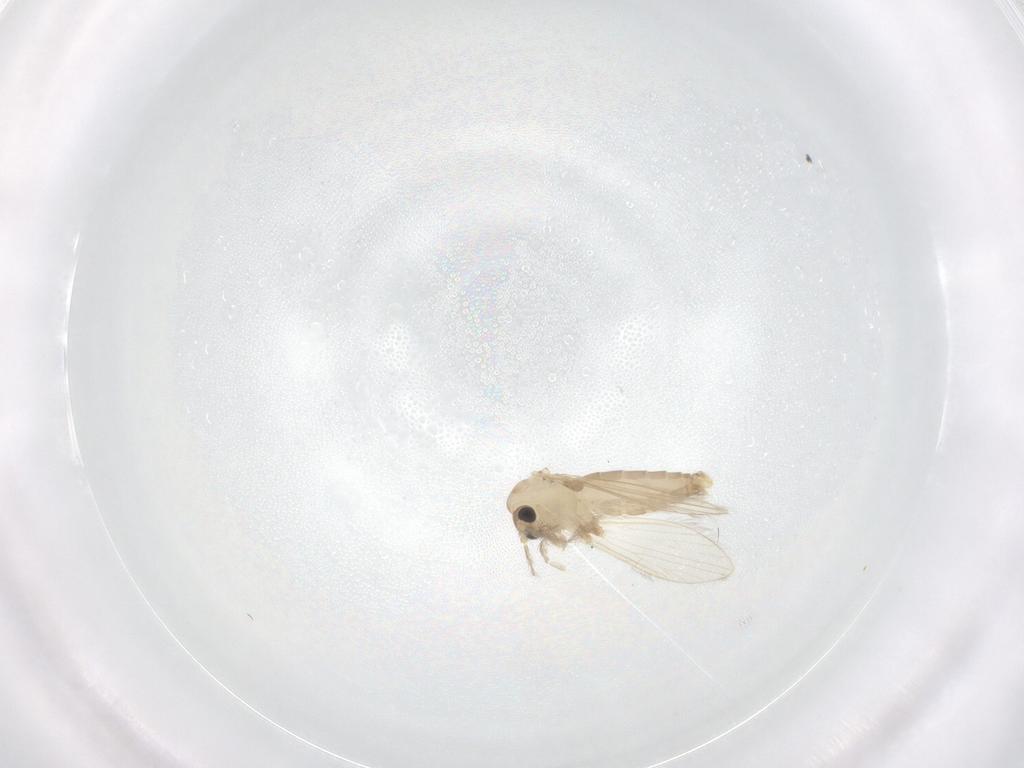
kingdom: Animalia
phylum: Arthropoda
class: Insecta
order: Diptera
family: Psychodidae
